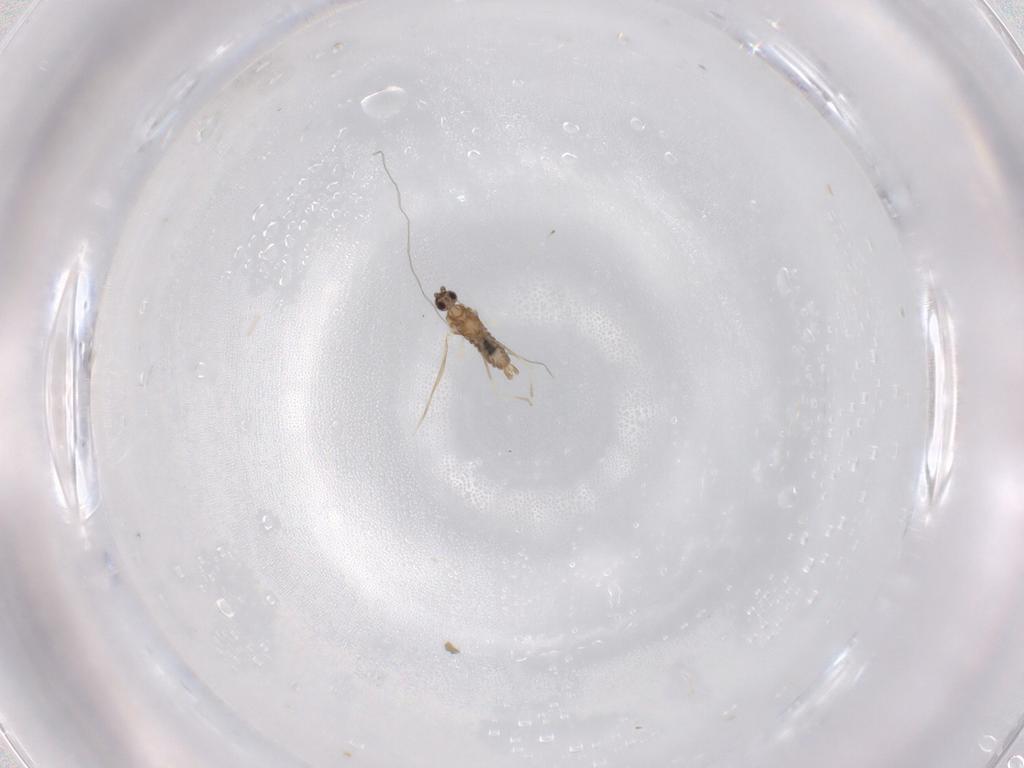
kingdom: Animalia
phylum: Arthropoda
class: Insecta
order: Diptera
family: Cecidomyiidae
